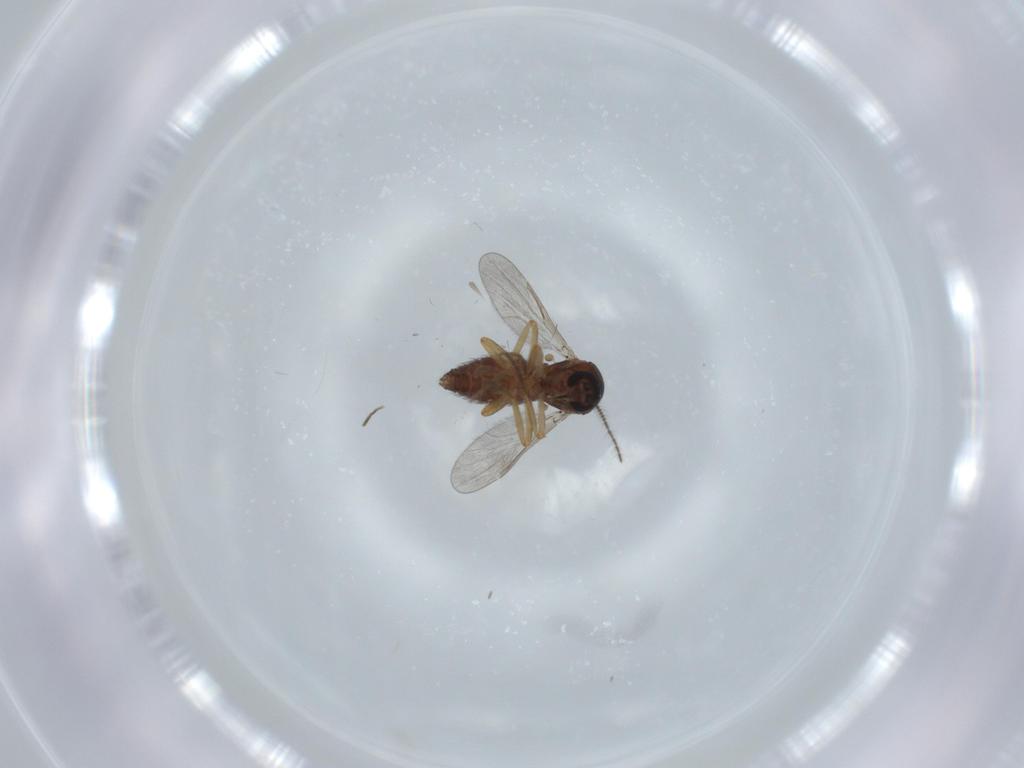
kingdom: Animalia
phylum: Arthropoda
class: Insecta
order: Diptera
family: Ceratopogonidae
